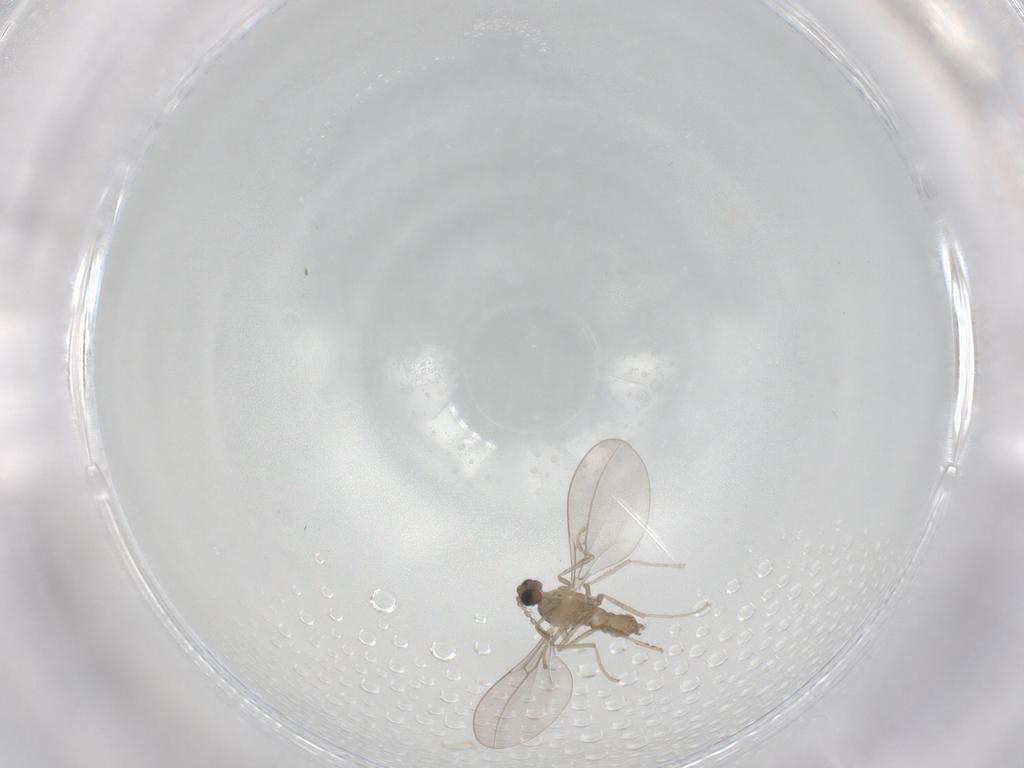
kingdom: Animalia
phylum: Arthropoda
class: Insecta
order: Diptera
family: Cecidomyiidae
